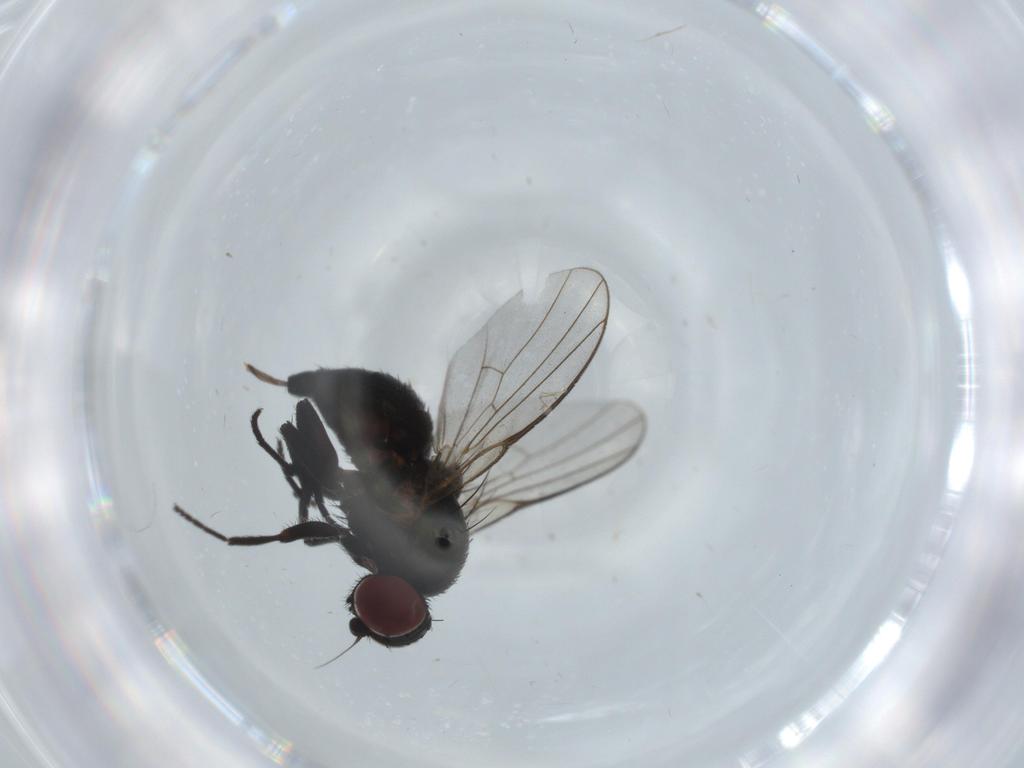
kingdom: Animalia
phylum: Arthropoda
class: Insecta
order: Diptera
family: Agromyzidae
